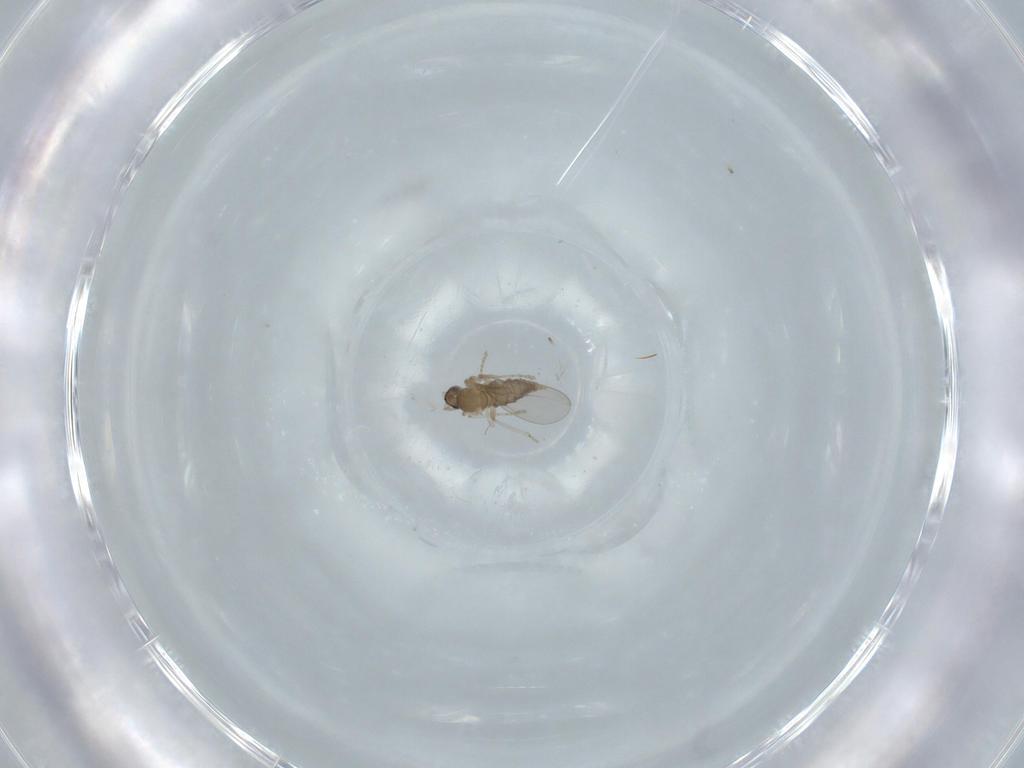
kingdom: Animalia
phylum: Arthropoda
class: Insecta
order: Diptera
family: Cecidomyiidae
